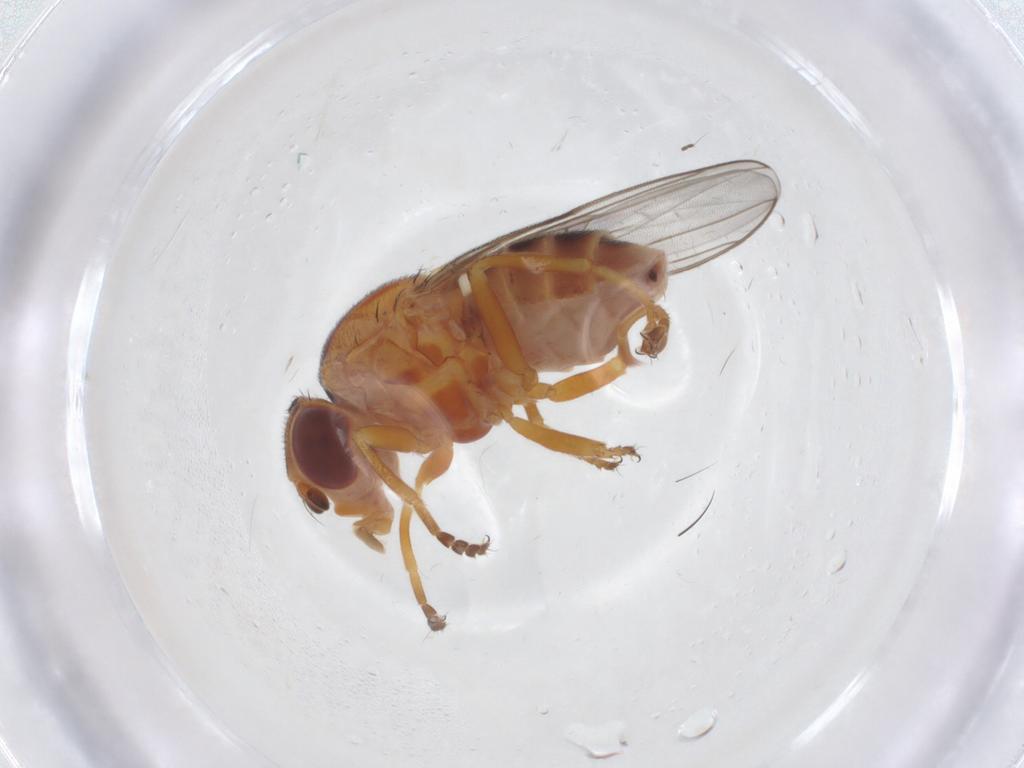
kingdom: Animalia
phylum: Arthropoda
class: Insecta
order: Diptera
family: Chloropidae
